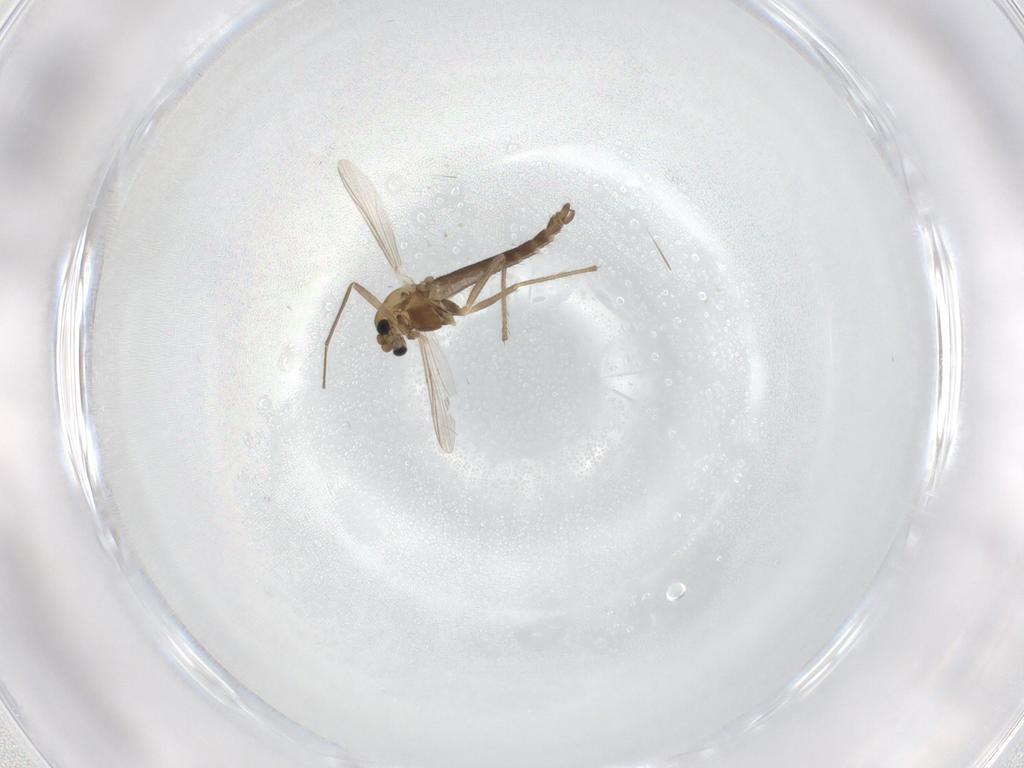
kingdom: Animalia
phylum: Arthropoda
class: Insecta
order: Diptera
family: Chironomidae
